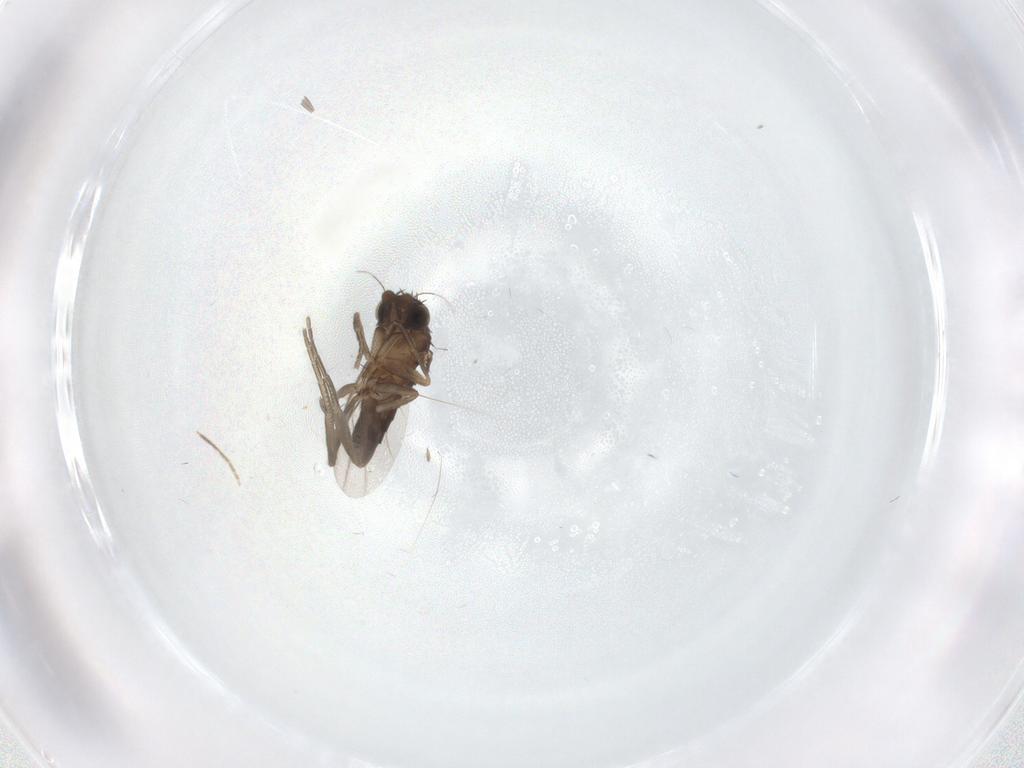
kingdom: Animalia
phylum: Arthropoda
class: Insecta
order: Diptera
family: Phoridae
